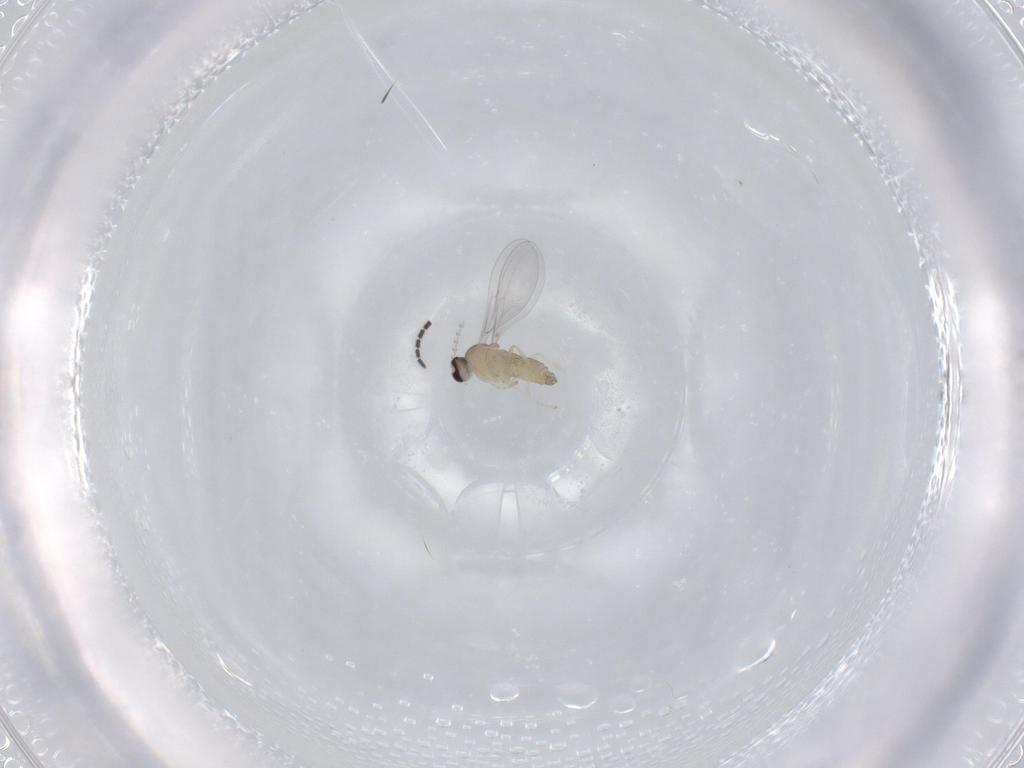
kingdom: Animalia
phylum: Arthropoda
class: Insecta
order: Diptera
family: Cecidomyiidae
